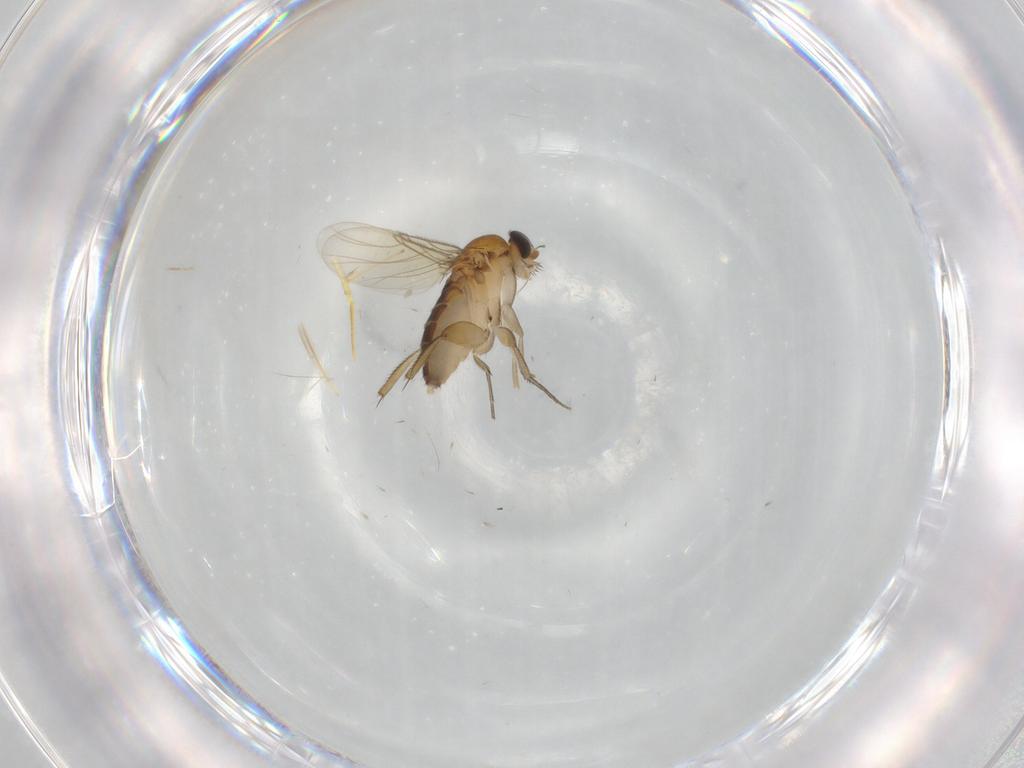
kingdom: Animalia
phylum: Arthropoda
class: Insecta
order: Diptera
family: Phoridae
